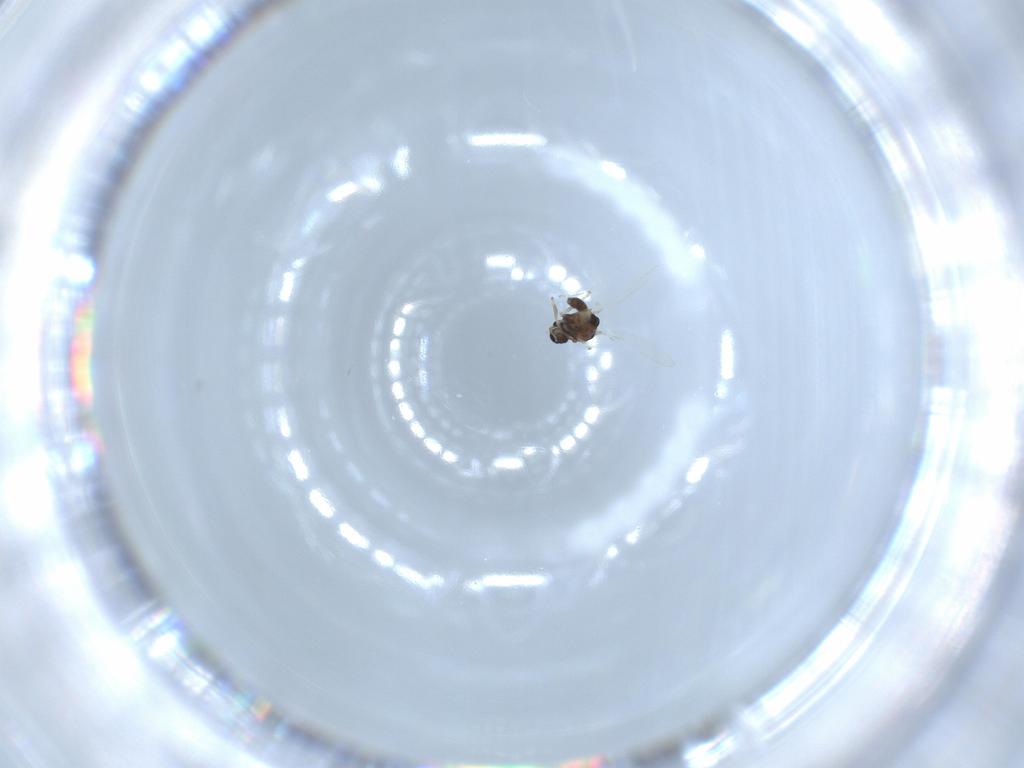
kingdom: Animalia
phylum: Arthropoda
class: Insecta
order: Diptera
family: Chironomidae
